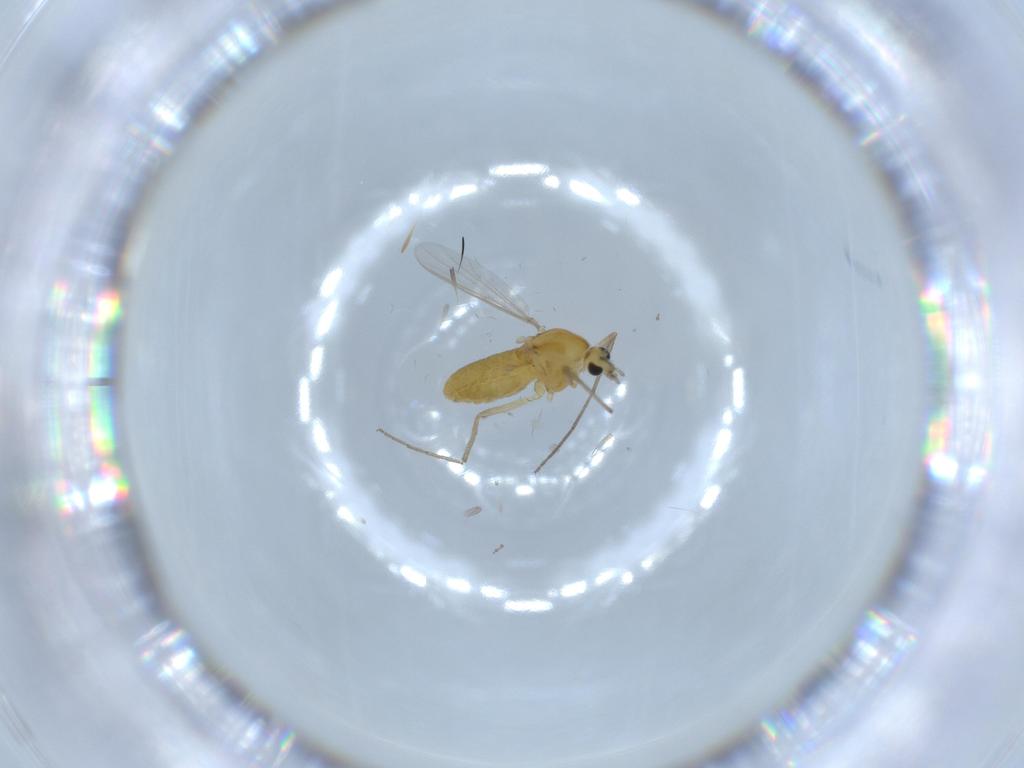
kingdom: Animalia
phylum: Arthropoda
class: Insecta
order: Diptera
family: Chironomidae
